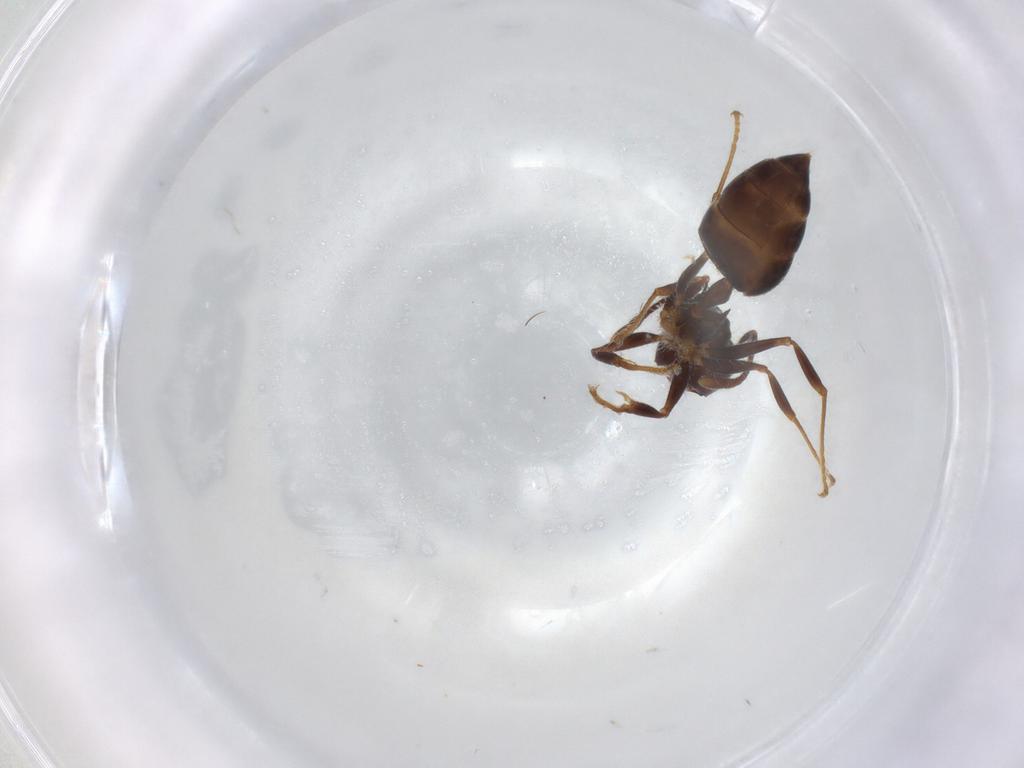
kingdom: Animalia
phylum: Arthropoda
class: Insecta
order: Hymenoptera
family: Formicidae
